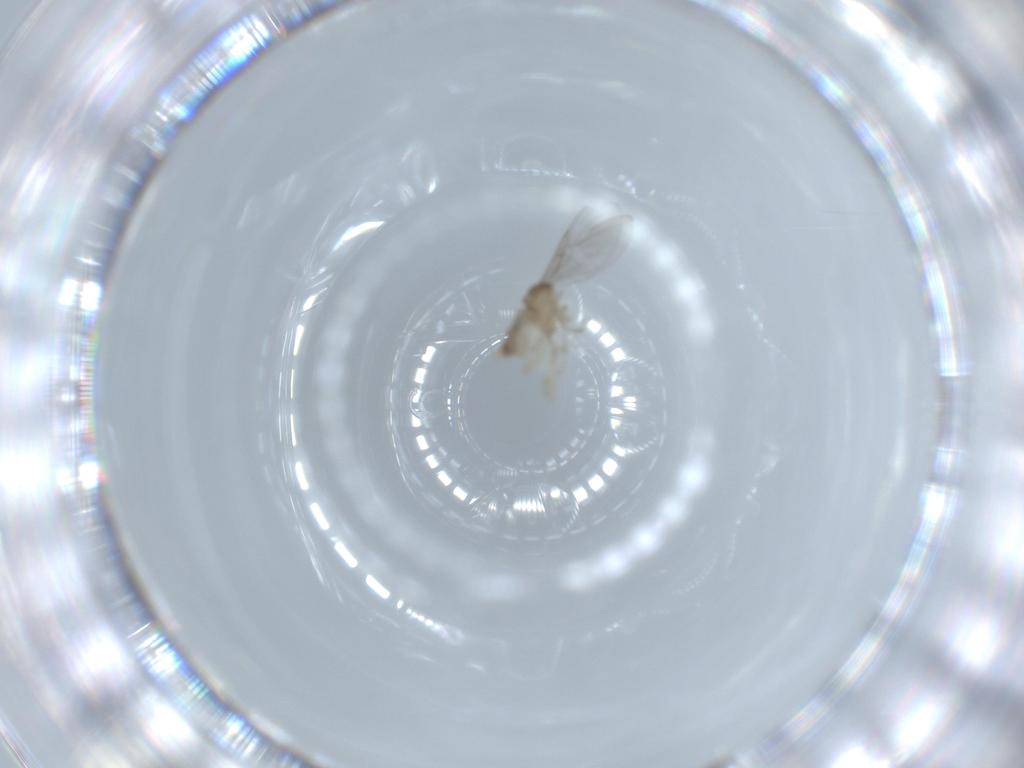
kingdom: Animalia
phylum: Arthropoda
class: Insecta
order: Diptera
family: Cecidomyiidae
